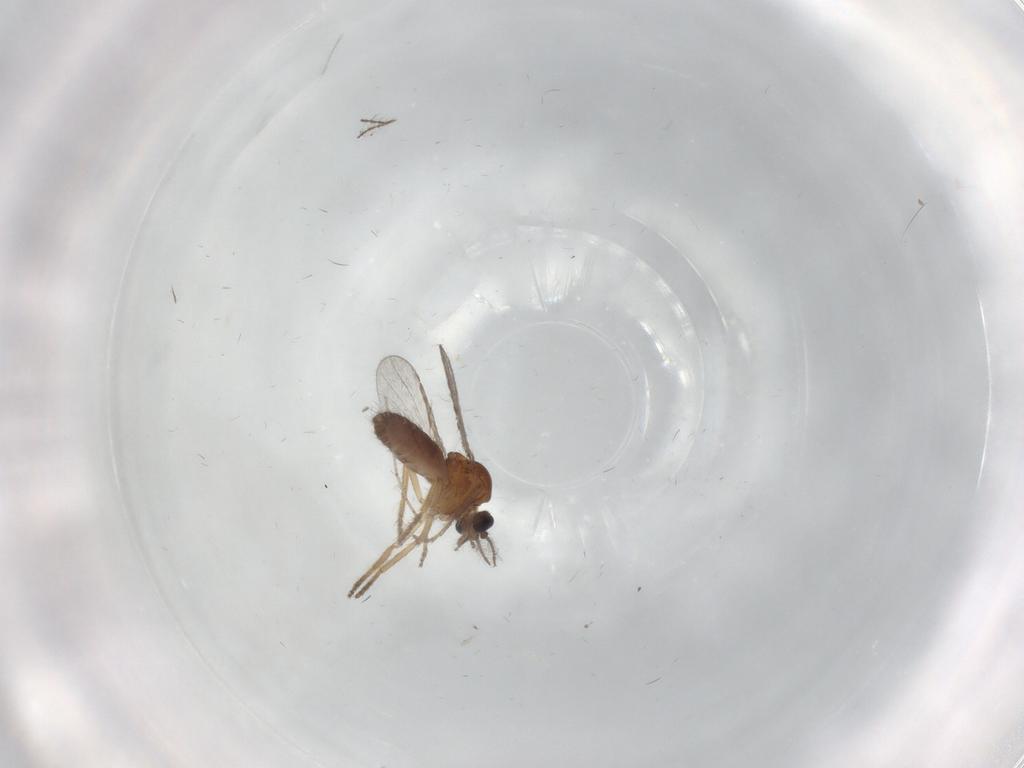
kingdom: Animalia
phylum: Arthropoda
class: Insecta
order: Diptera
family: Ceratopogonidae
